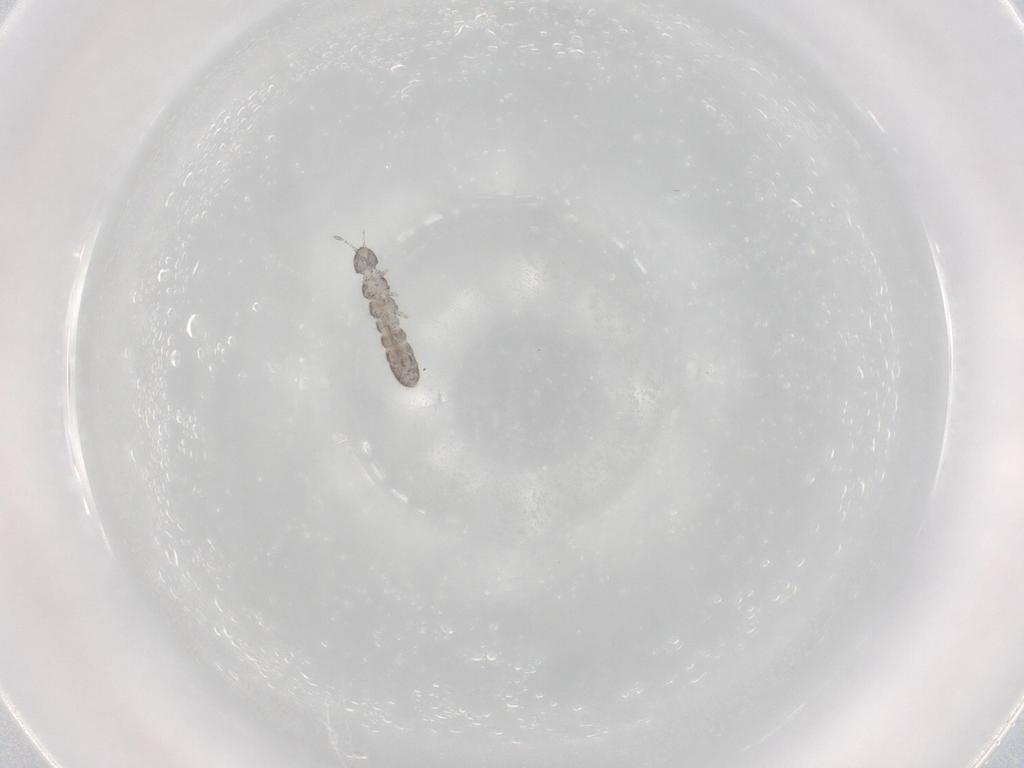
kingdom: Animalia
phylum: Arthropoda
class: Collembola
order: Entomobryomorpha
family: Isotomidae
